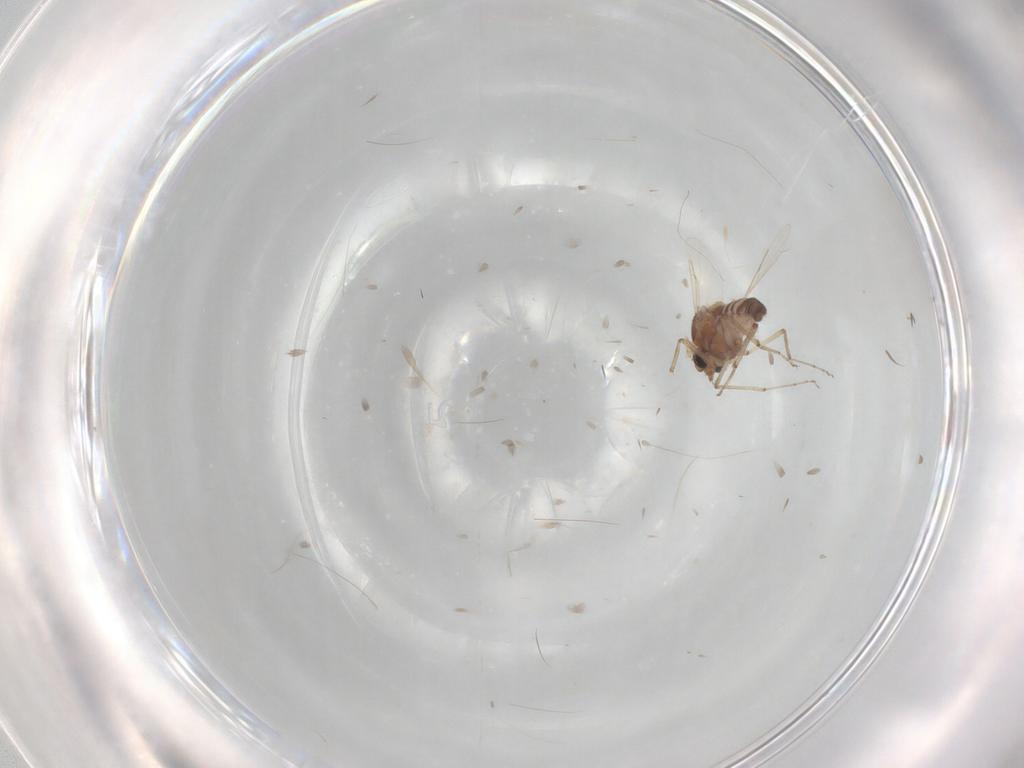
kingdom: Animalia
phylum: Arthropoda
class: Insecta
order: Diptera
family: Ceratopogonidae
